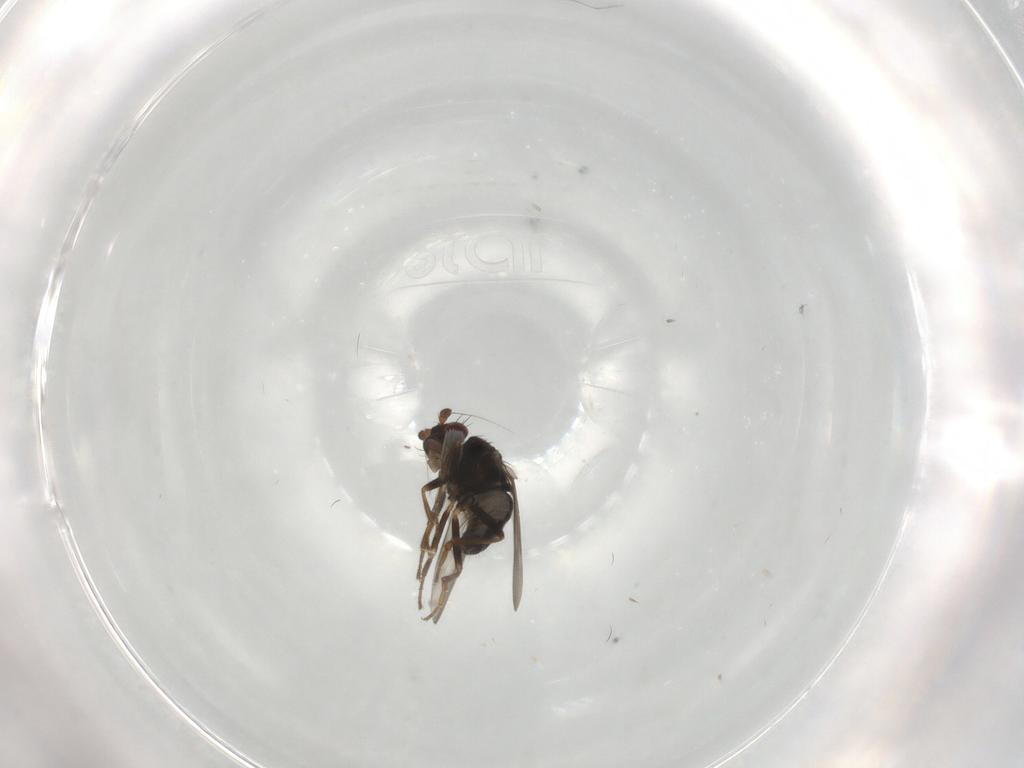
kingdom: Animalia
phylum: Arthropoda
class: Insecta
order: Diptera
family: Sphaeroceridae
